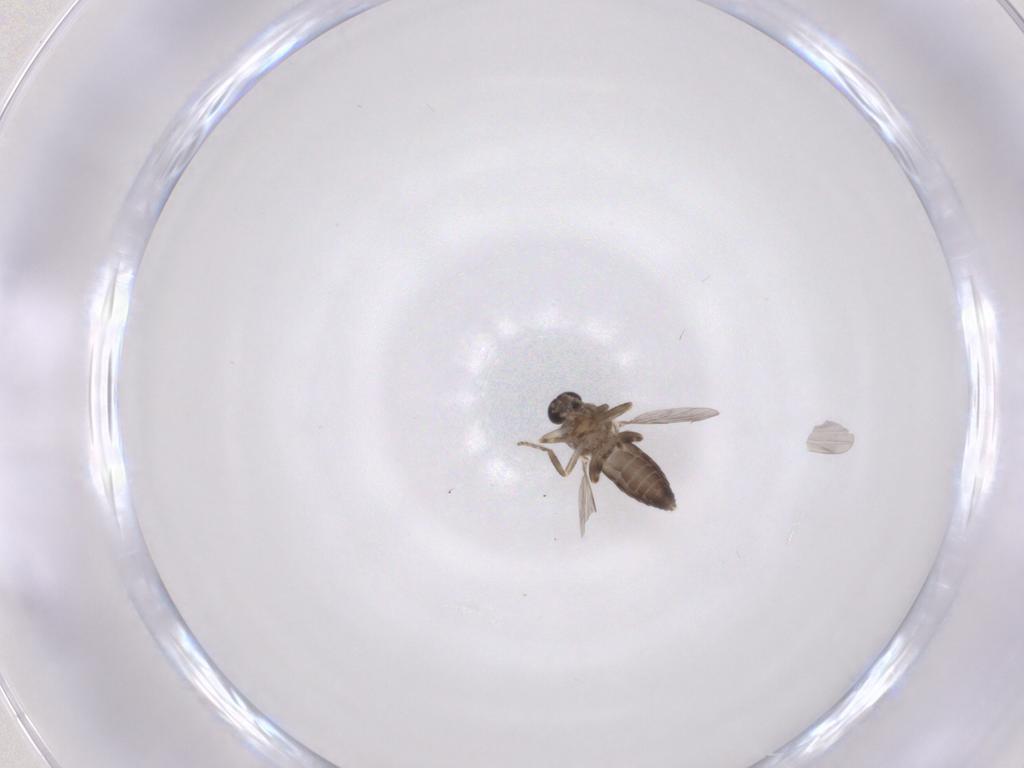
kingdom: Animalia
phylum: Arthropoda
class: Insecta
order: Diptera
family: Ceratopogonidae
